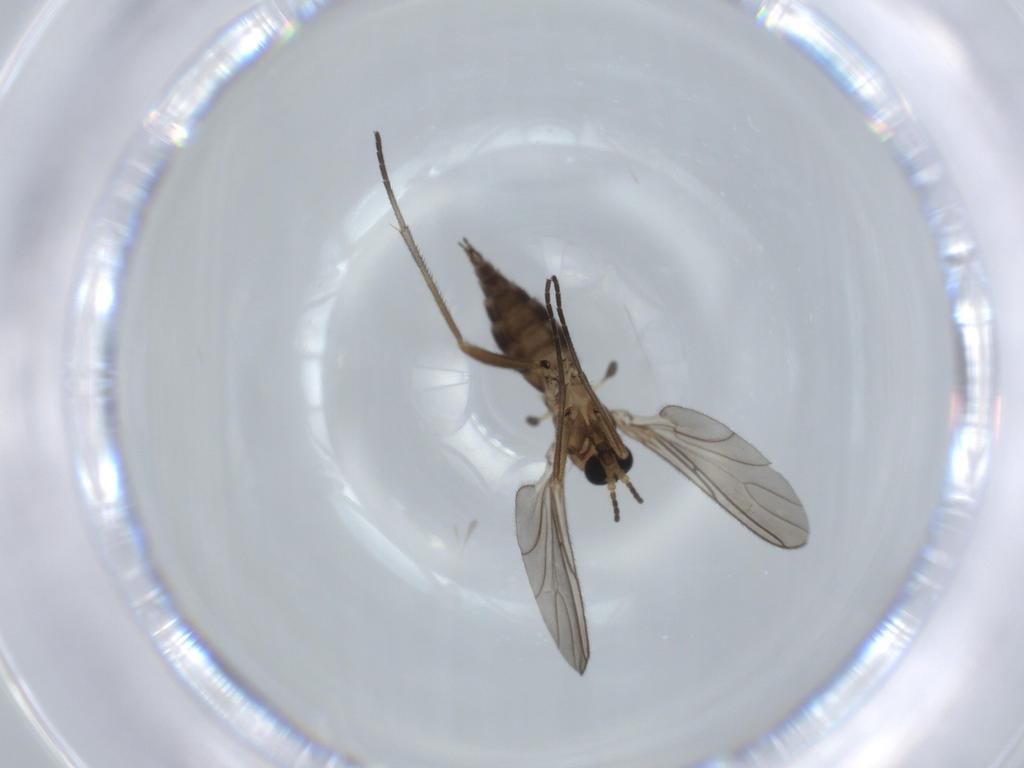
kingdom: Animalia
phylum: Arthropoda
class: Insecta
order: Diptera
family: Sciaridae
